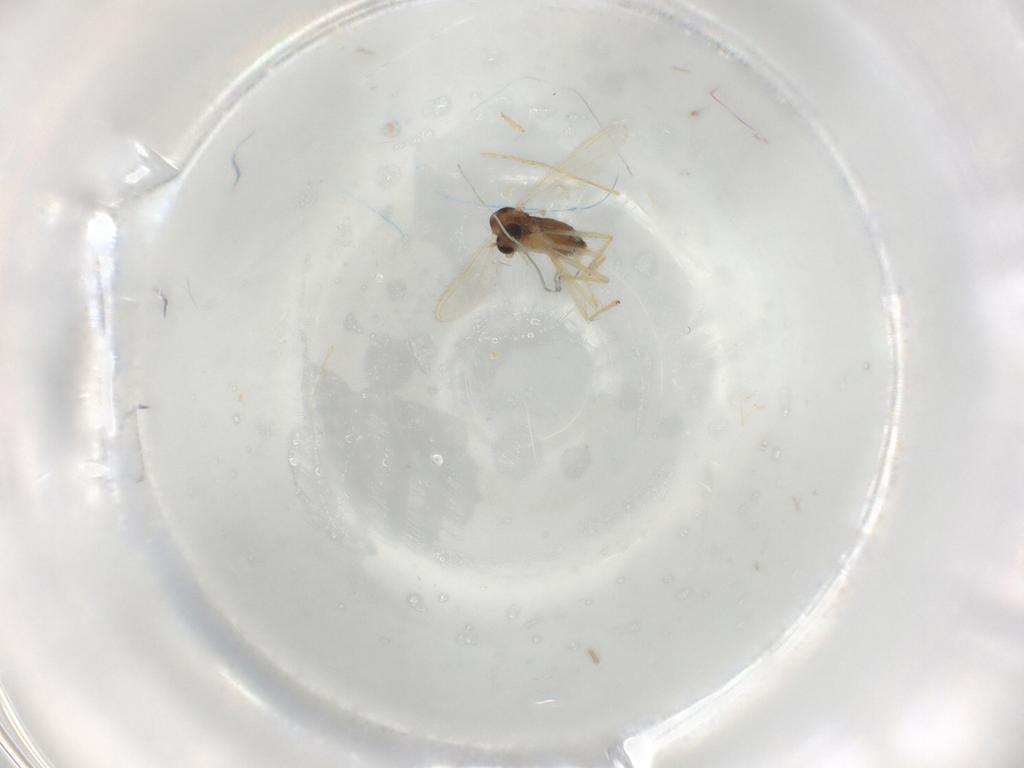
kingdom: Animalia
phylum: Arthropoda
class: Insecta
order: Diptera
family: Chironomidae
